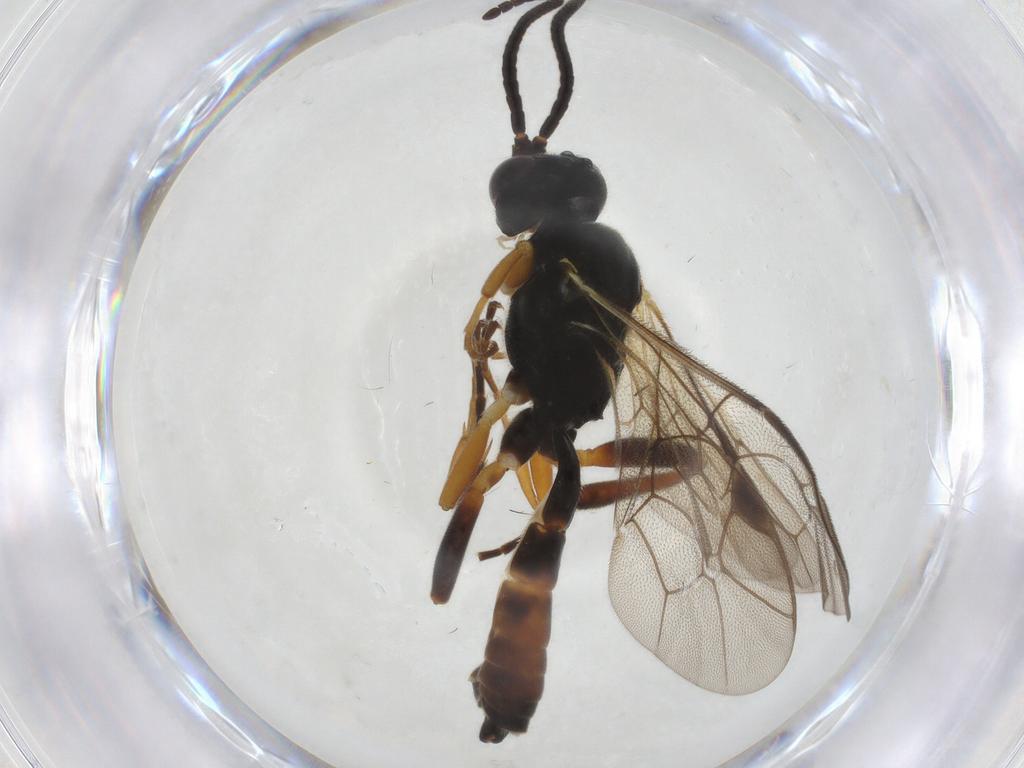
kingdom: Animalia
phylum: Arthropoda
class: Insecta
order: Hymenoptera
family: Ichneumonidae
